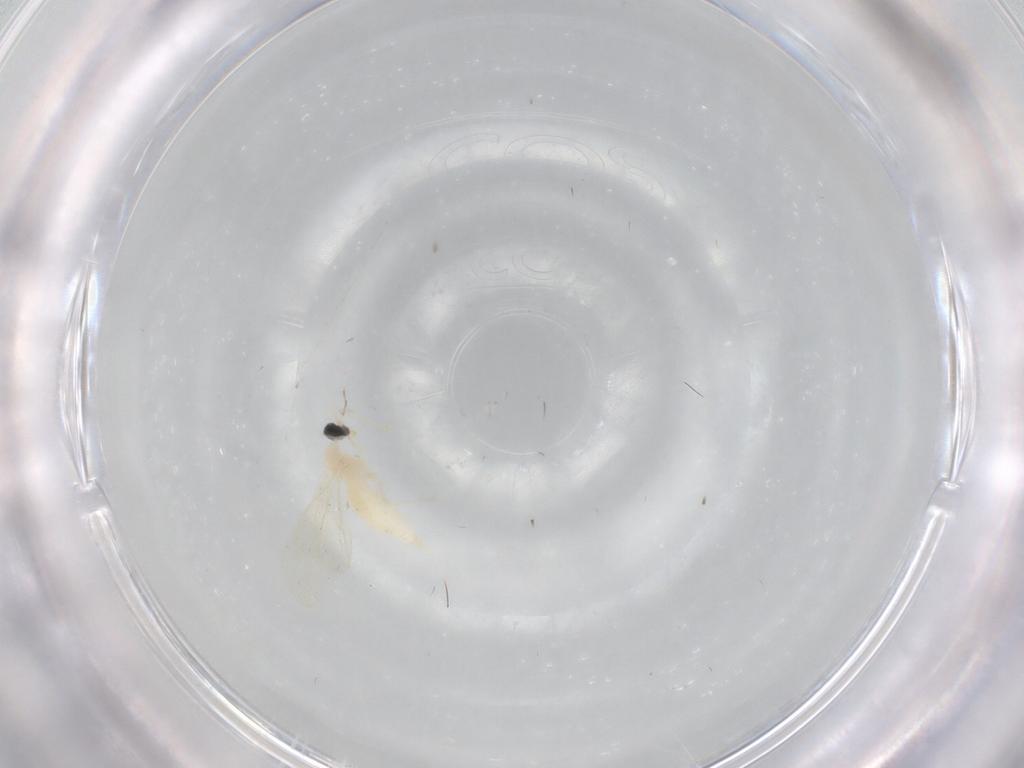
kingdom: Animalia
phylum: Arthropoda
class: Insecta
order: Diptera
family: Cecidomyiidae
